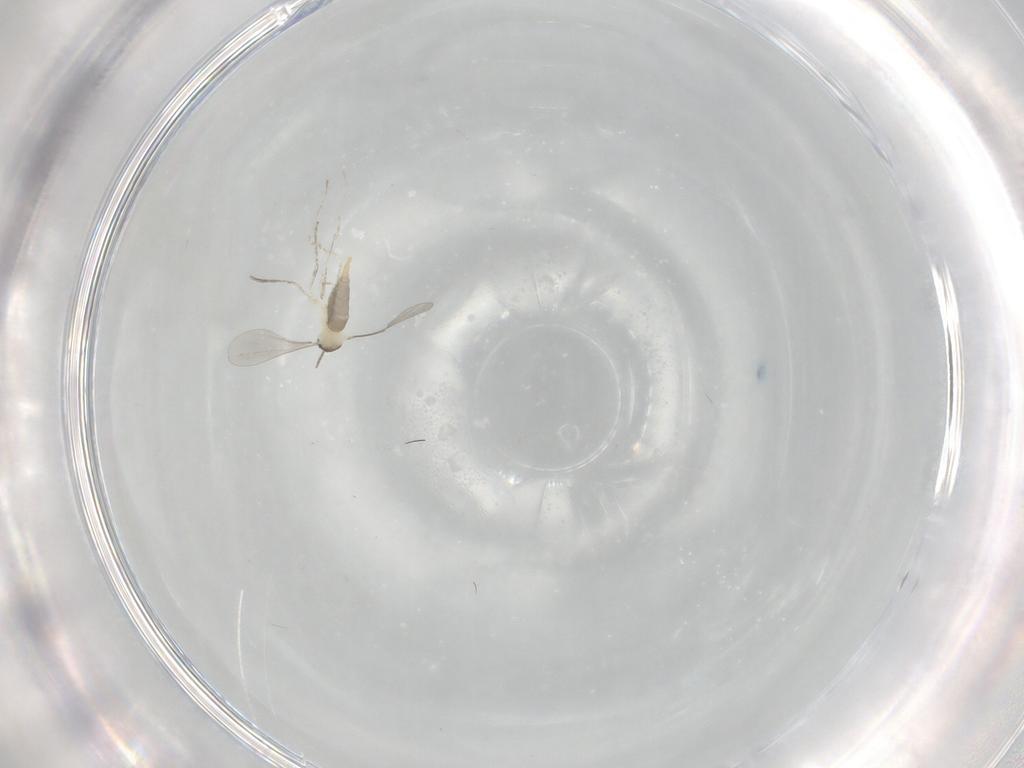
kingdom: Animalia
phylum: Arthropoda
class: Insecta
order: Diptera
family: Cecidomyiidae
